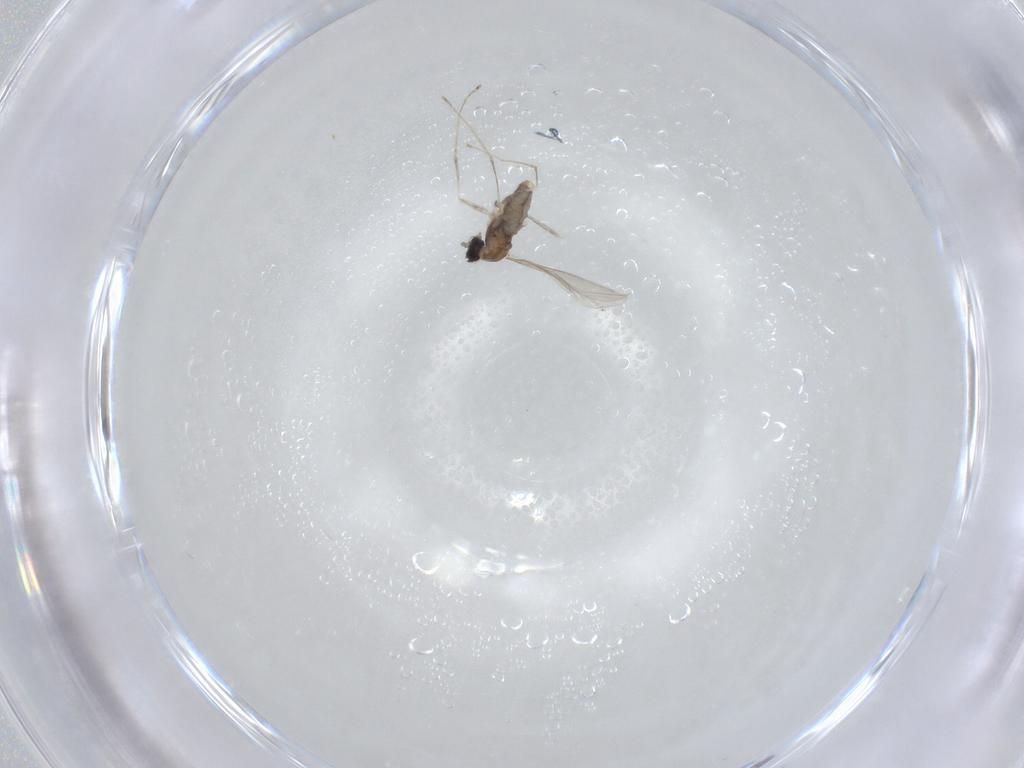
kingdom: Animalia
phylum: Arthropoda
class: Insecta
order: Diptera
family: Cecidomyiidae
